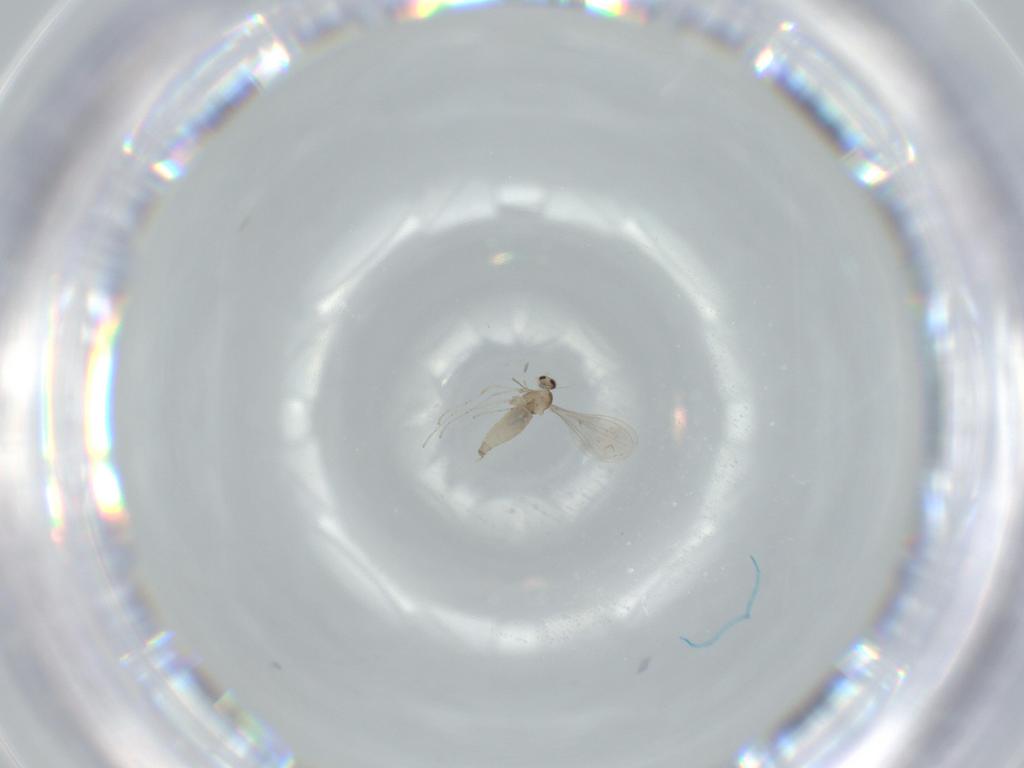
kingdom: Animalia
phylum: Arthropoda
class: Insecta
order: Diptera
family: Cecidomyiidae
